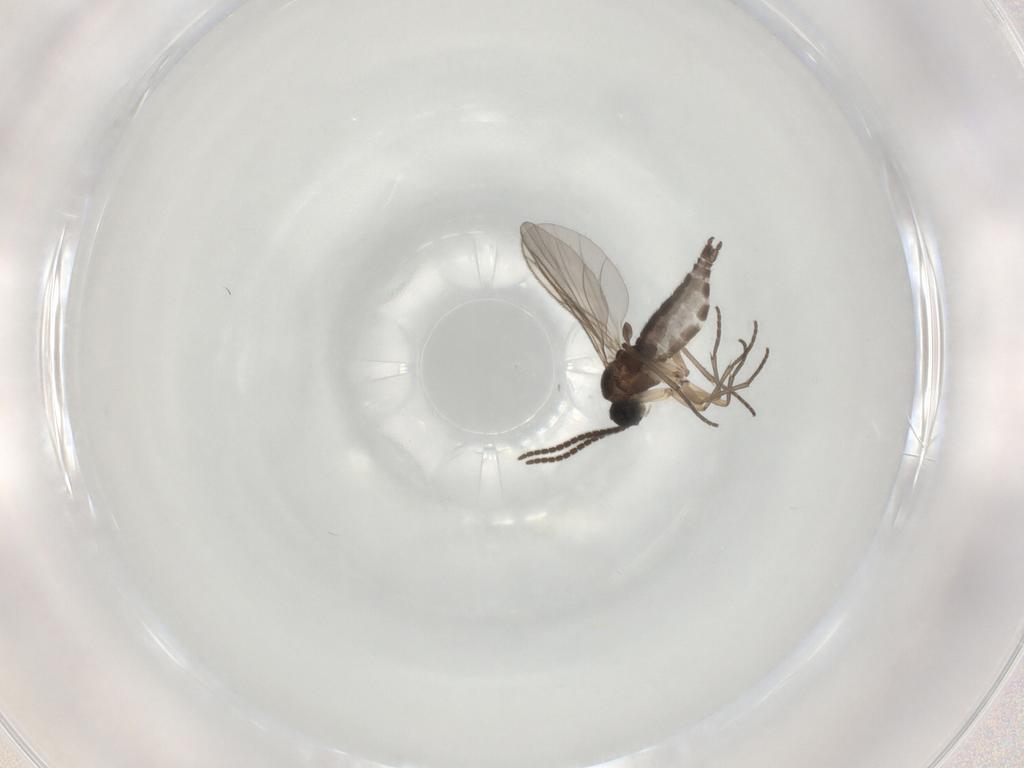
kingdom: Animalia
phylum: Arthropoda
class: Insecta
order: Diptera
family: Sciaridae
